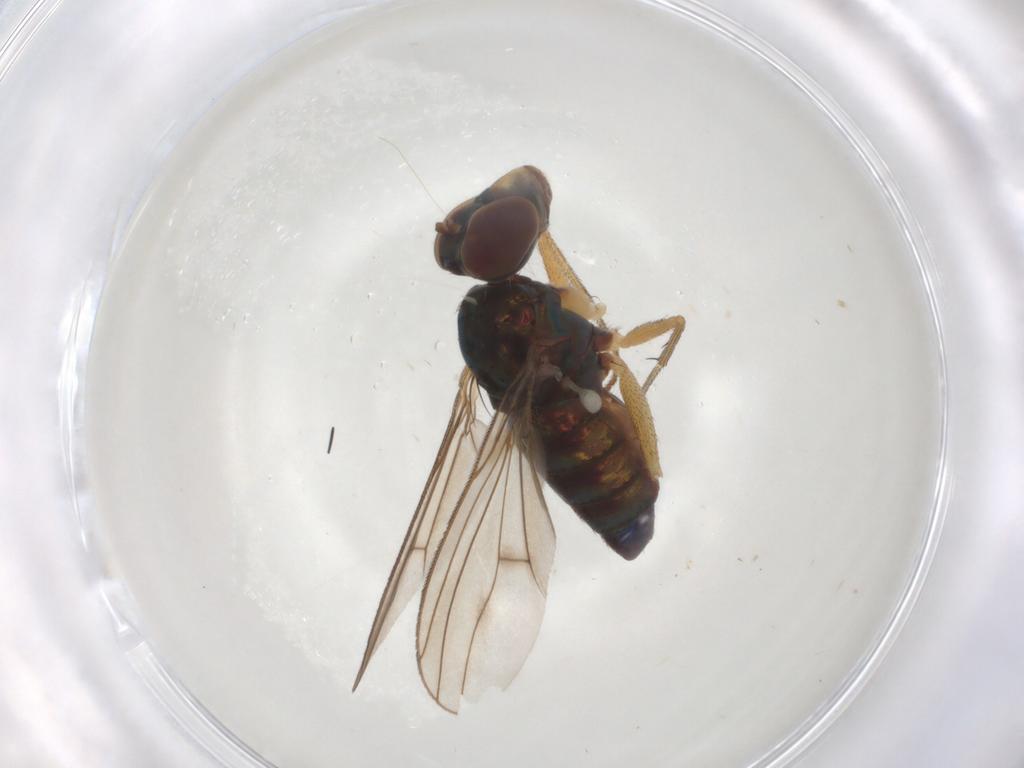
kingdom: Animalia
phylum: Arthropoda
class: Insecta
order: Diptera
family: Dolichopodidae
